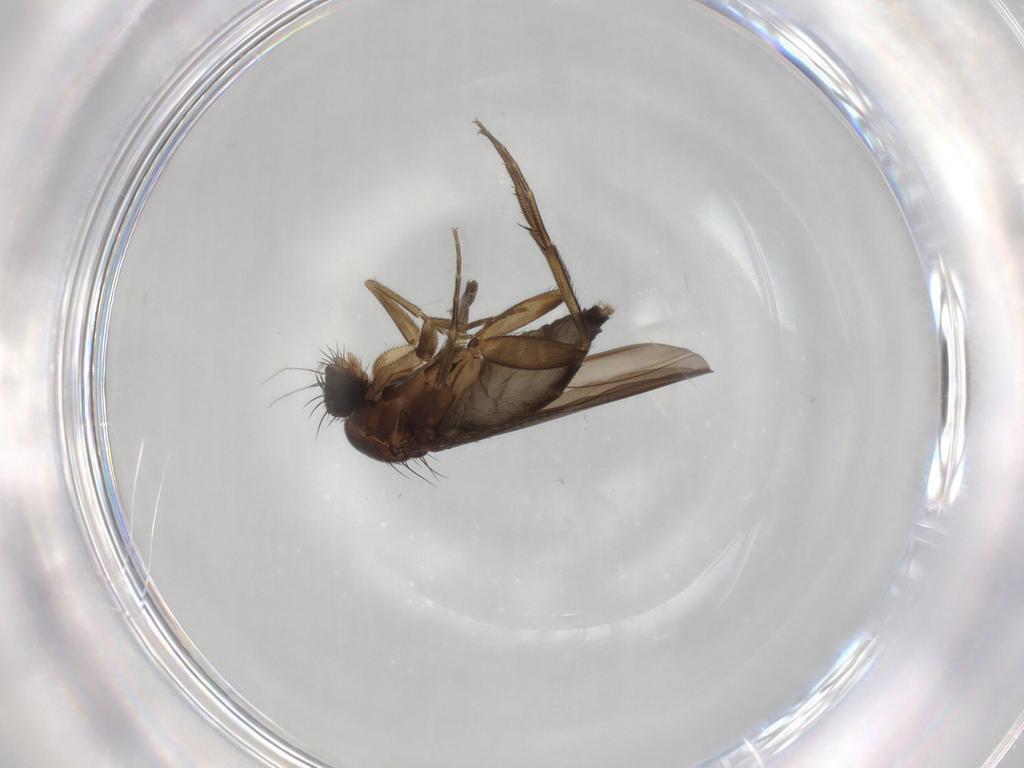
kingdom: Animalia
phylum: Arthropoda
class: Insecta
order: Diptera
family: Phoridae
